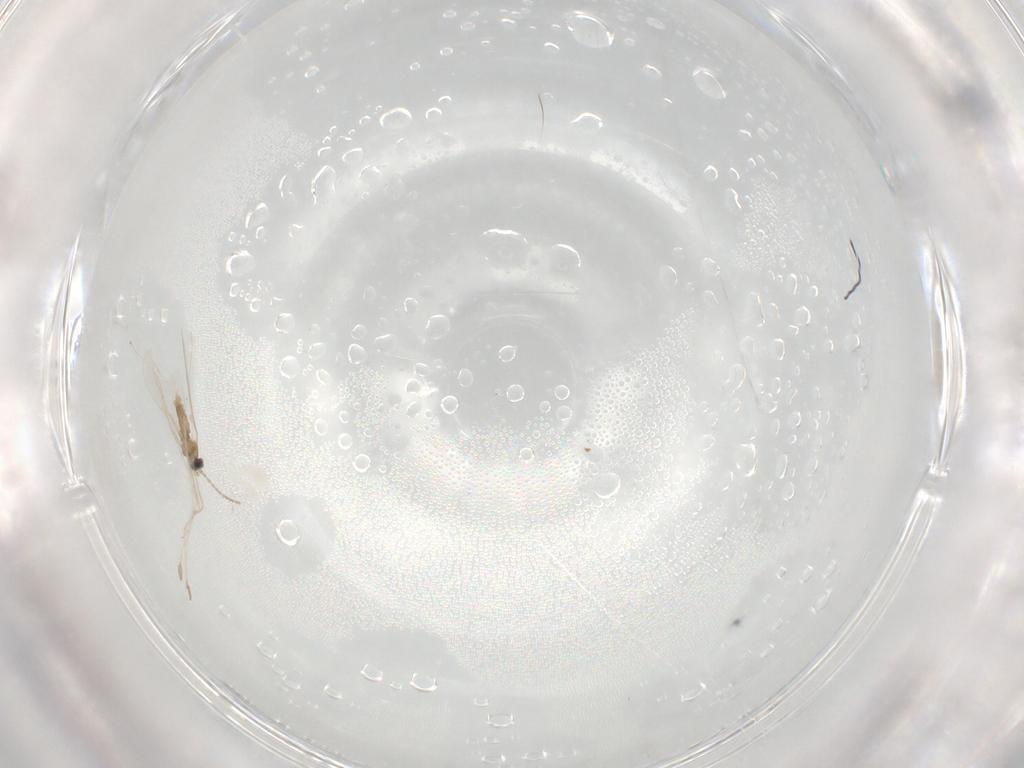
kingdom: Animalia
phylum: Arthropoda
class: Insecta
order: Diptera
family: Cecidomyiidae
